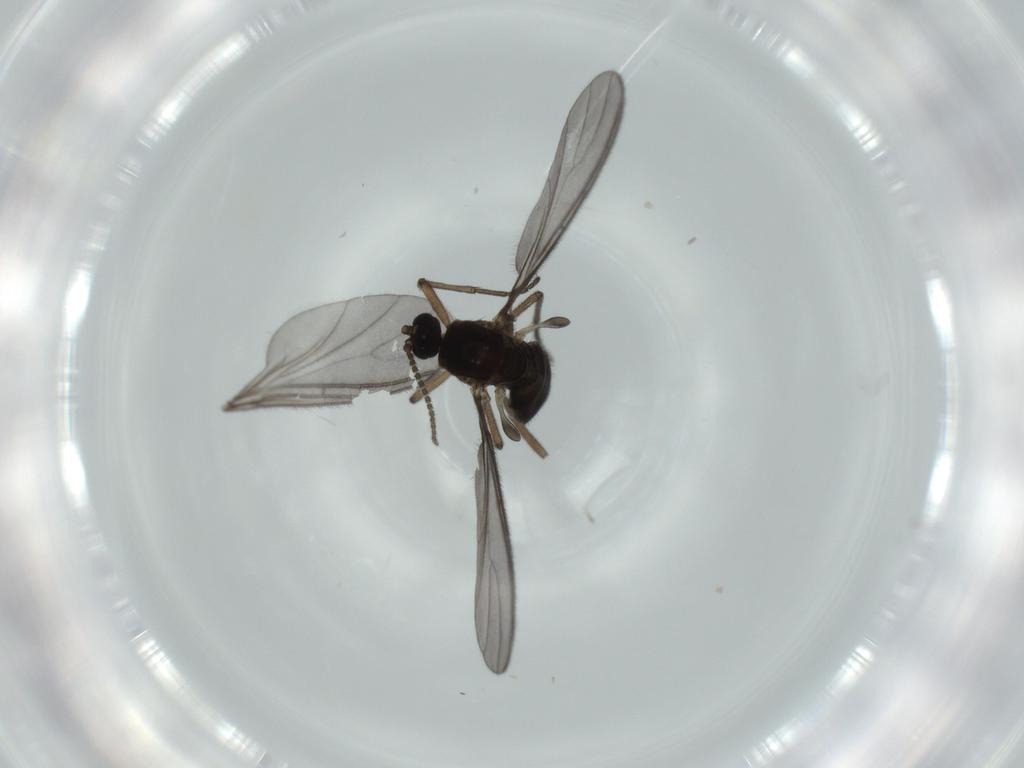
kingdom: Animalia
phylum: Arthropoda
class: Insecta
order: Diptera
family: Sciaridae
